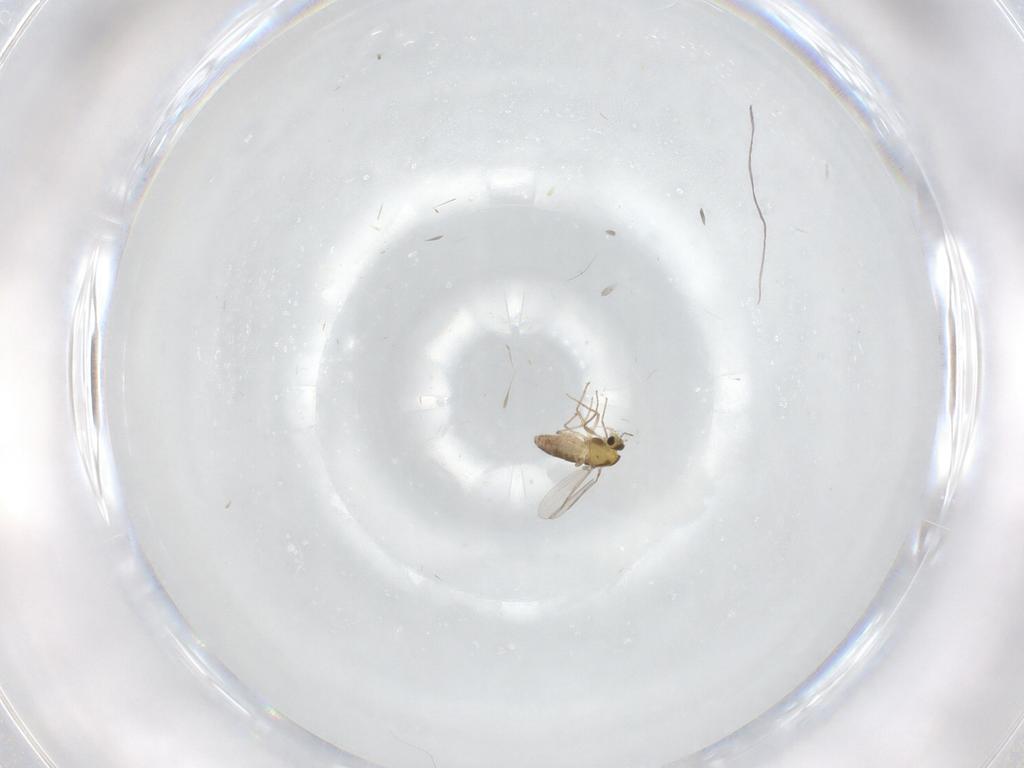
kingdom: Animalia
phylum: Arthropoda
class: Insecta
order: Diptera
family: Chironomidae
